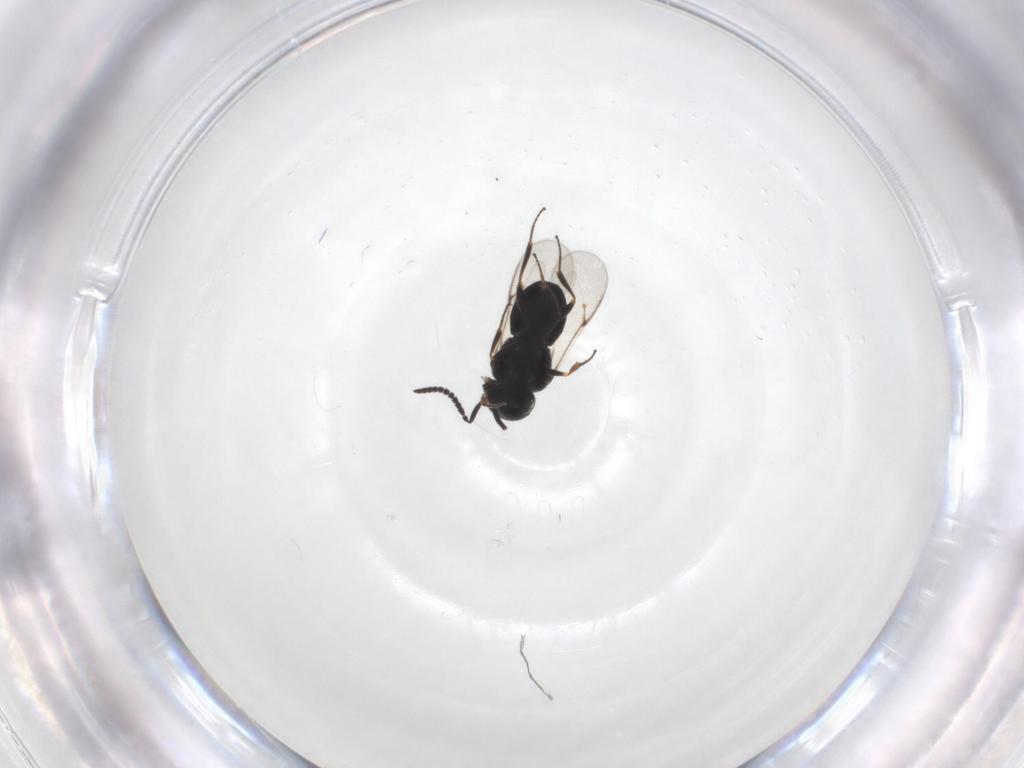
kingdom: Animalia
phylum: Arthropoda
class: Insecta
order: Hymenoptera
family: Scelionidae
